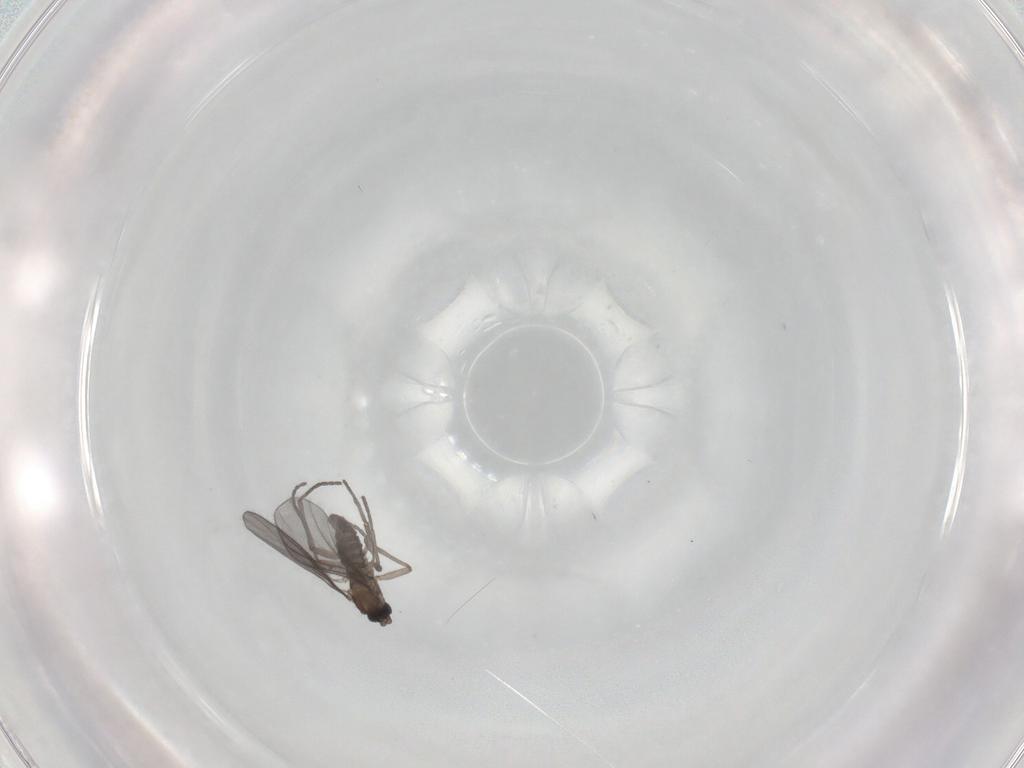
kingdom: Animalia
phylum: Arthropoda
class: Insecta
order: Diptera
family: Sciaridae
